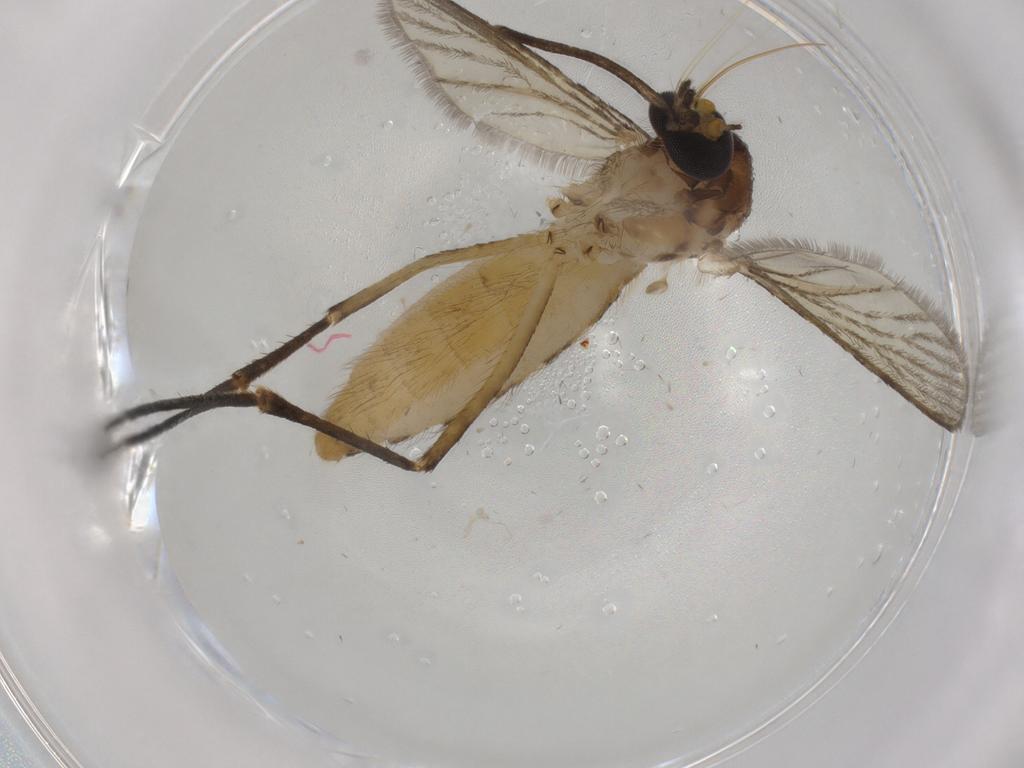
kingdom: Animalia
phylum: Arthropoda
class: Insecta
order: Diptera
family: Culicidae
